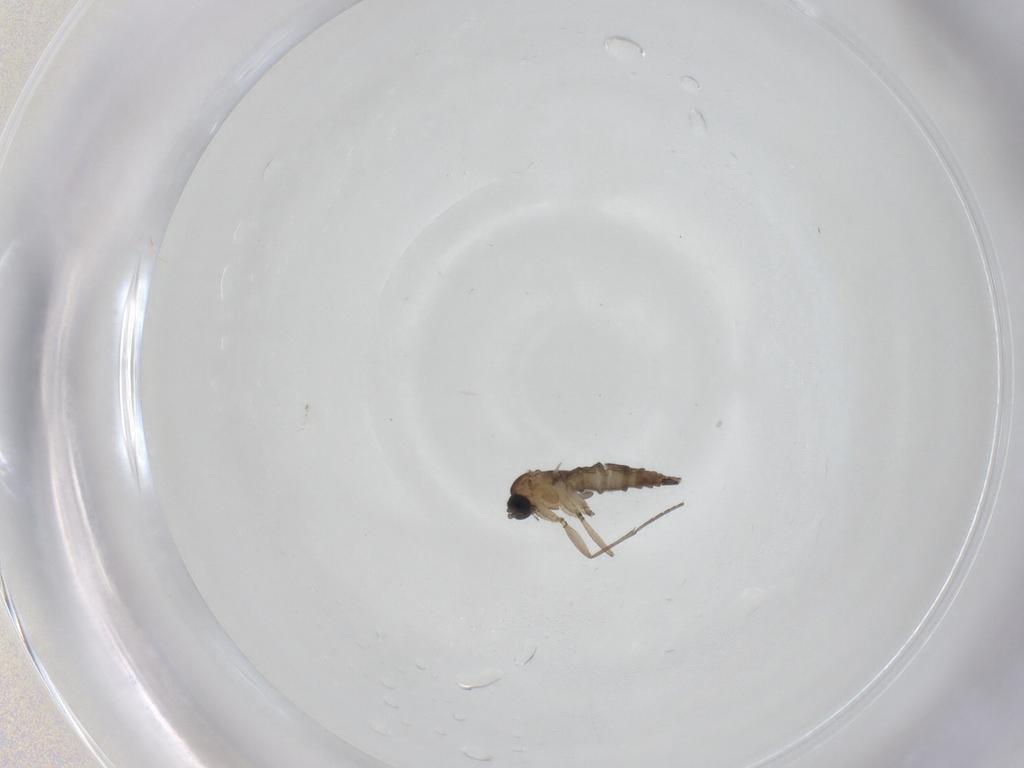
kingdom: Animalia
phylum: Arthropoda
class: Insecta
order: Diptera
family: Sciaridae
